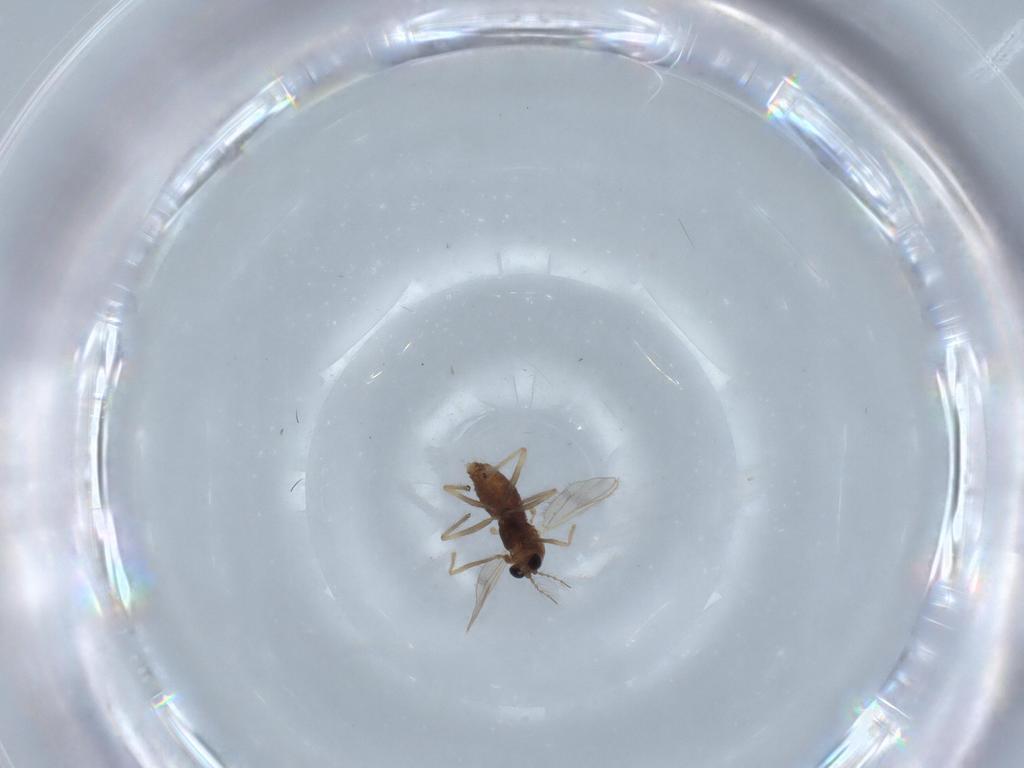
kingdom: Animalia
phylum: Arthropoda
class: Insecta
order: Diptera
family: Chironomidae
